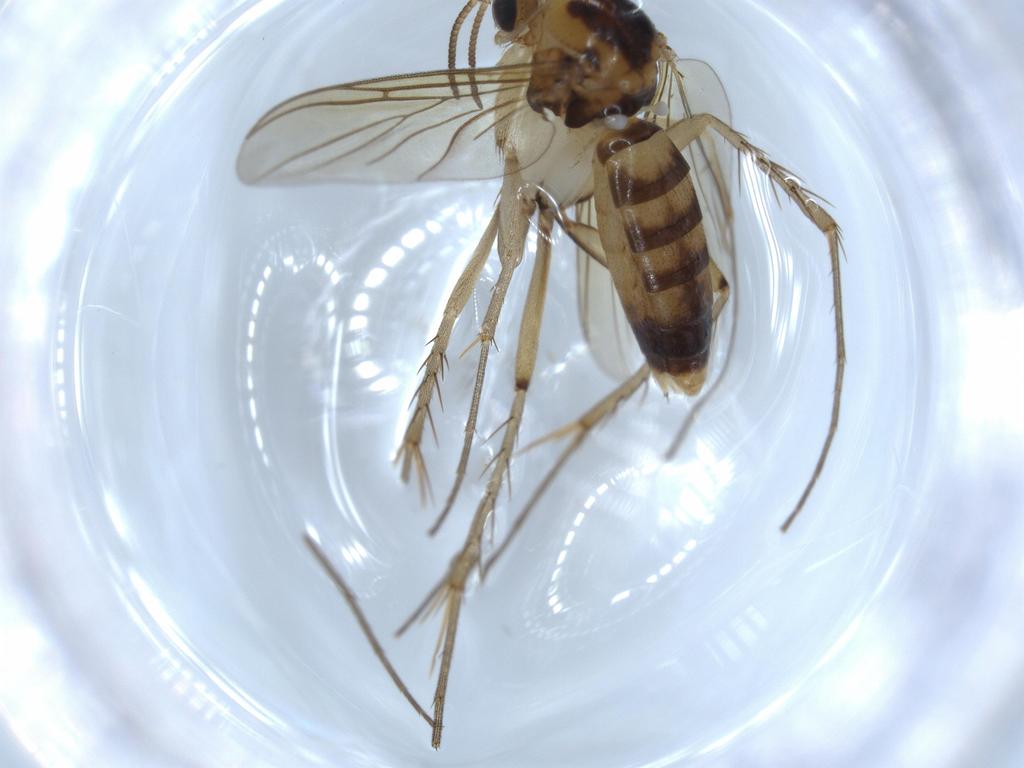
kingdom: Animalia
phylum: Arthropoda
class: Insecta
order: Diptera
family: Mycetophilidae
